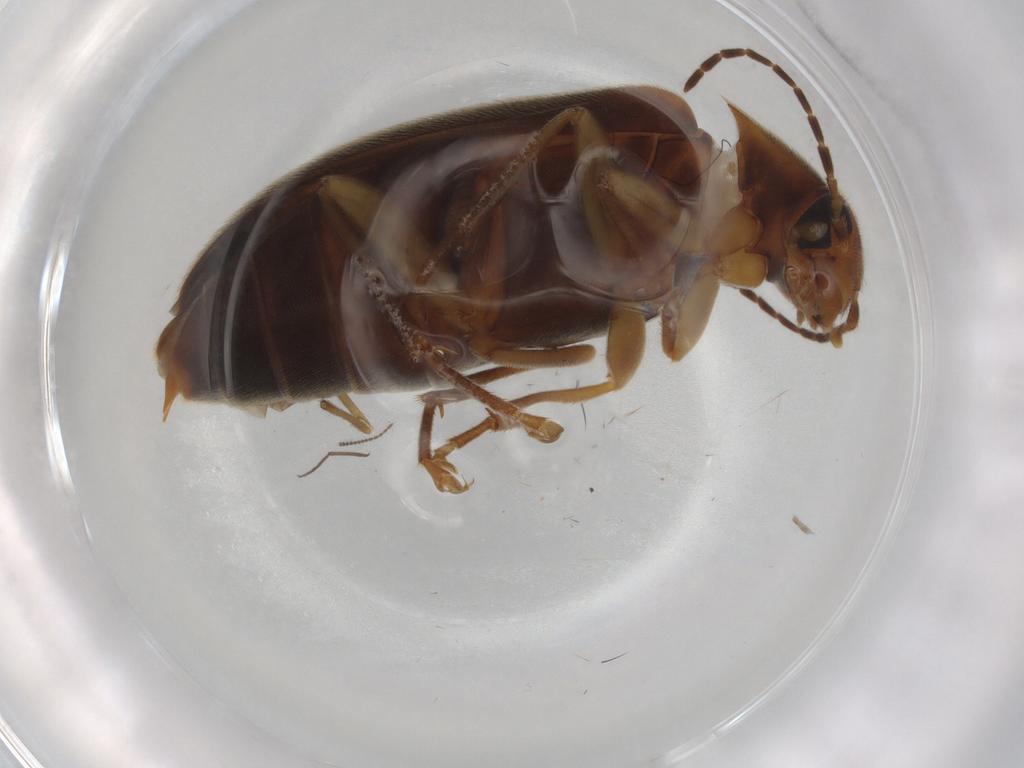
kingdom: Animalia
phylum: Arthropoda
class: Insecta
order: Coleoptera
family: Scraptiidae
